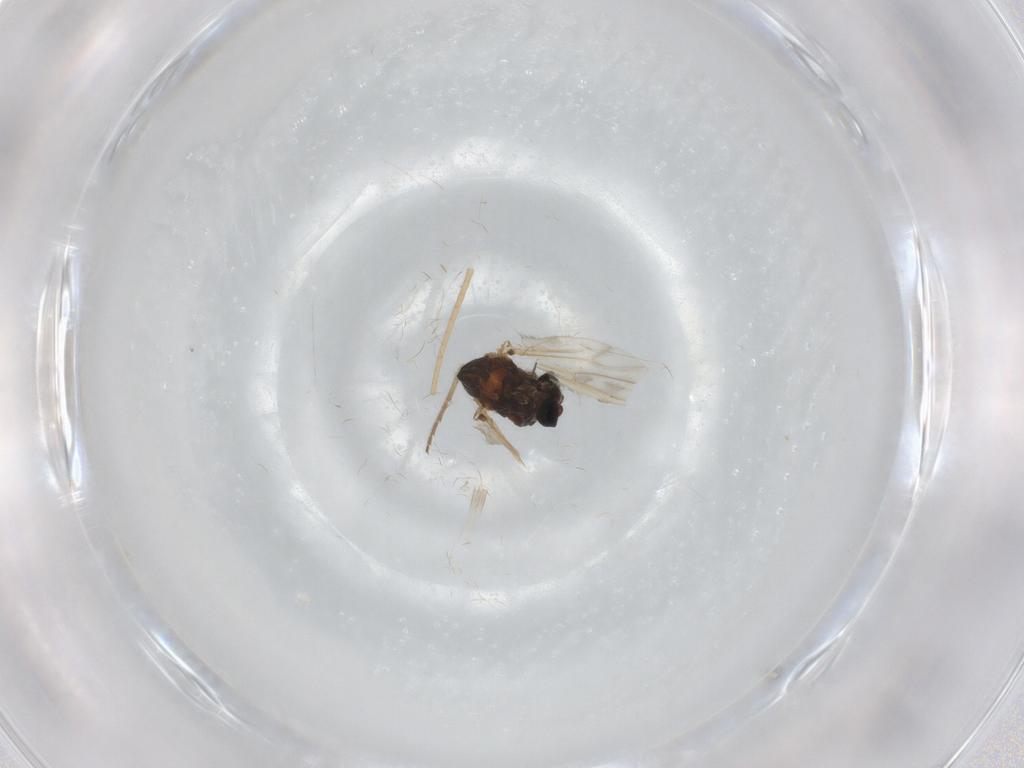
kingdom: Animalia
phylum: Arthropoda
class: Insecta
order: Diptera
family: Chironomidae
